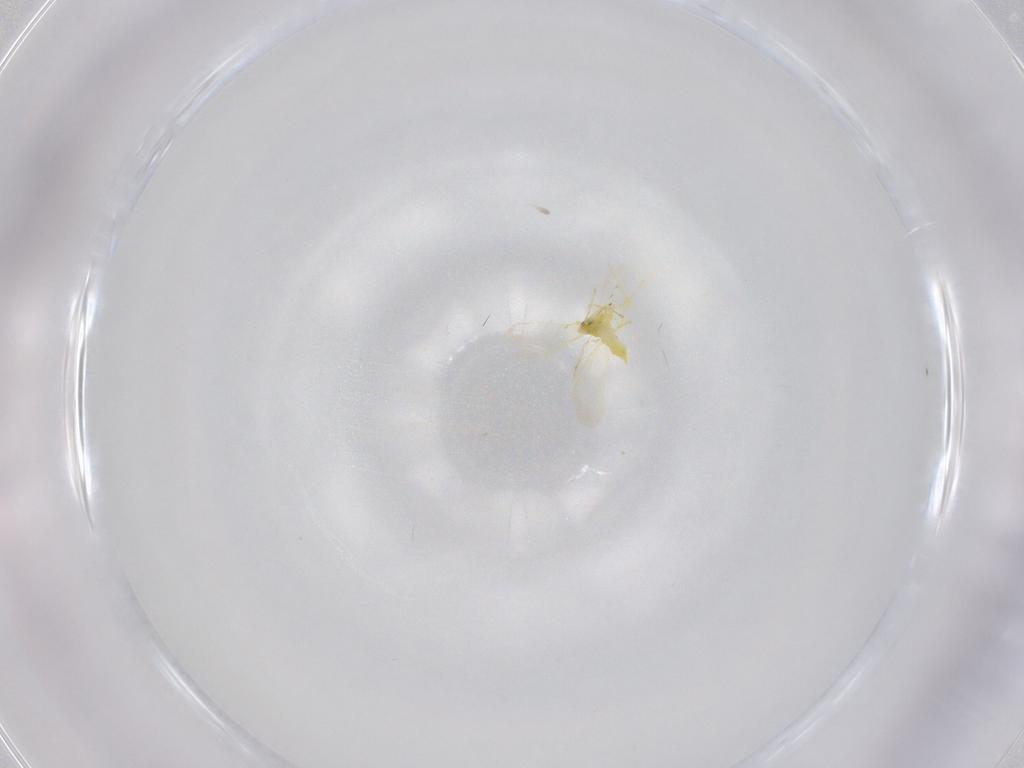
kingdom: Animalia
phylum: Arthropoda
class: Insecta
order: Hemiptera
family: Aleyrodidae
